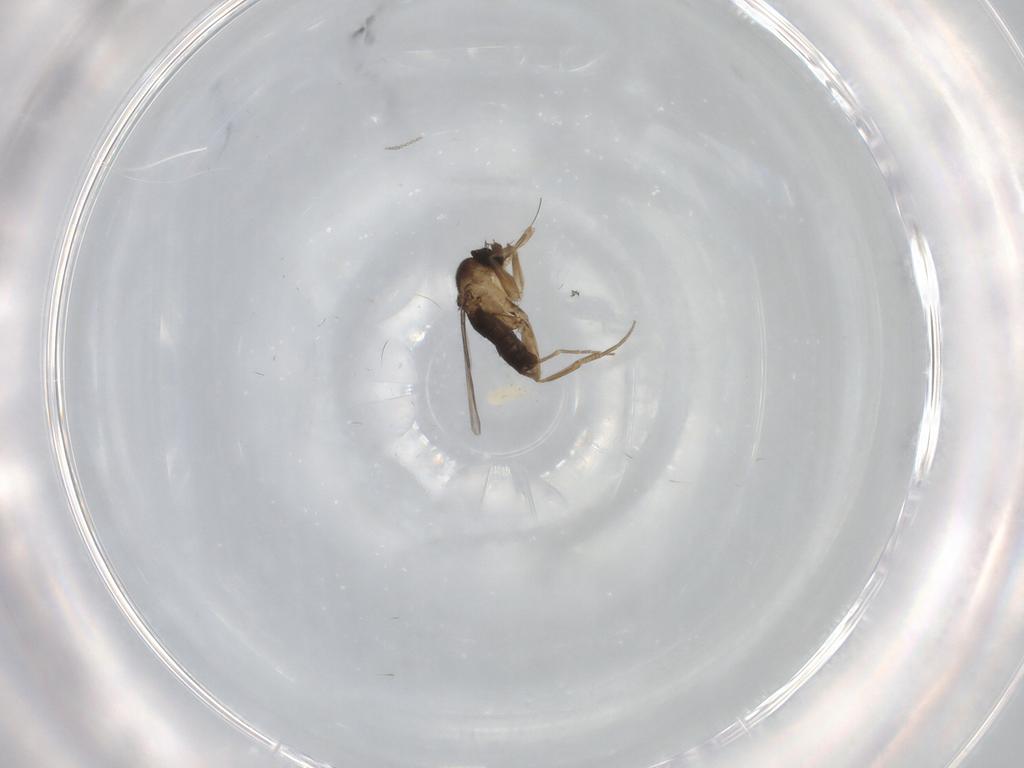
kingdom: Animalia
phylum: Arthropoda
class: Insecta
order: Diptera
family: Phoridae
